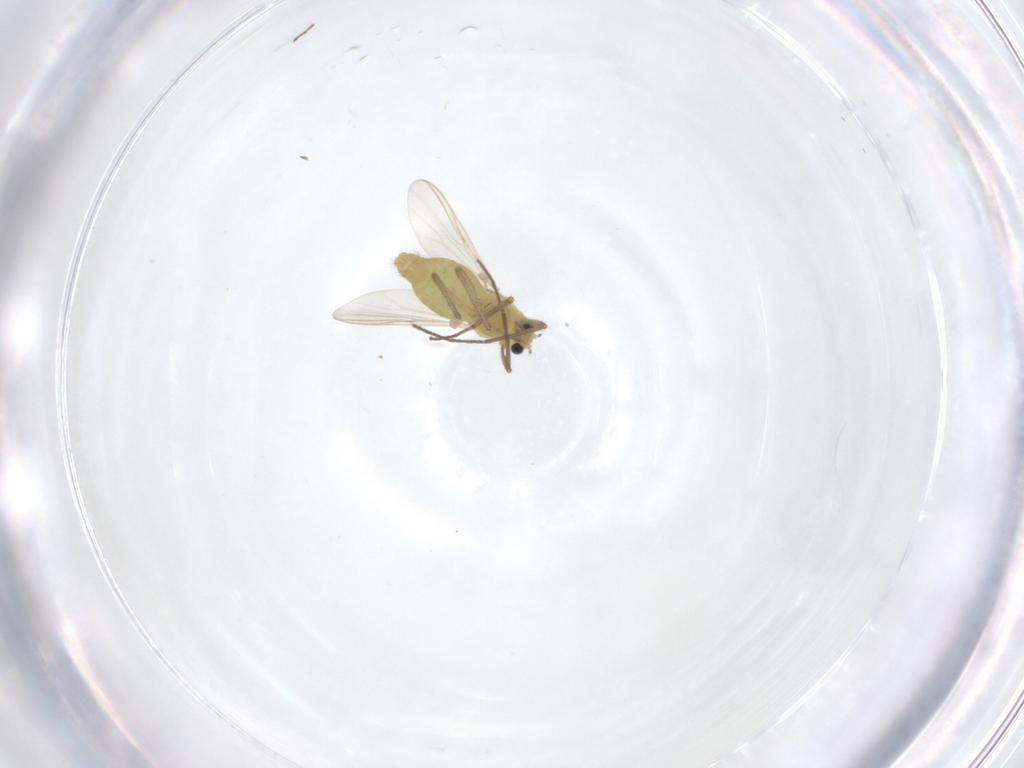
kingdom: Animalia
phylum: Arthropoda
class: Insecta
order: Diptera
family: Chironomidae
